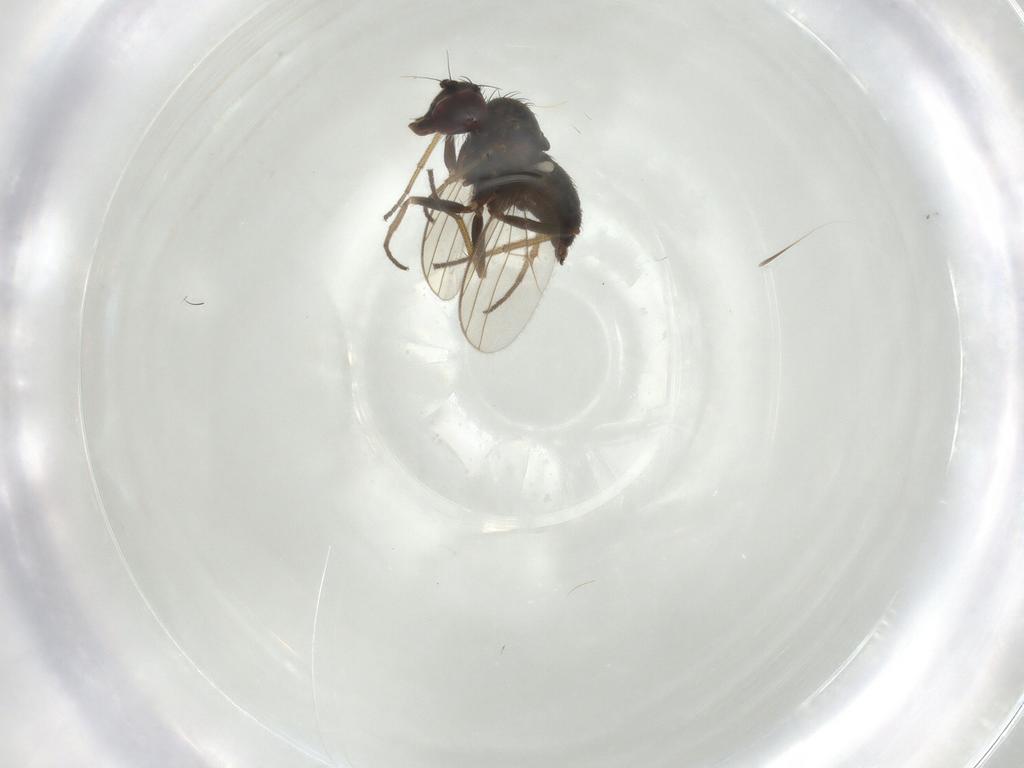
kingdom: Animalia
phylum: Arthropoda
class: Insecta
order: Diptera
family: Dolichopodidae
